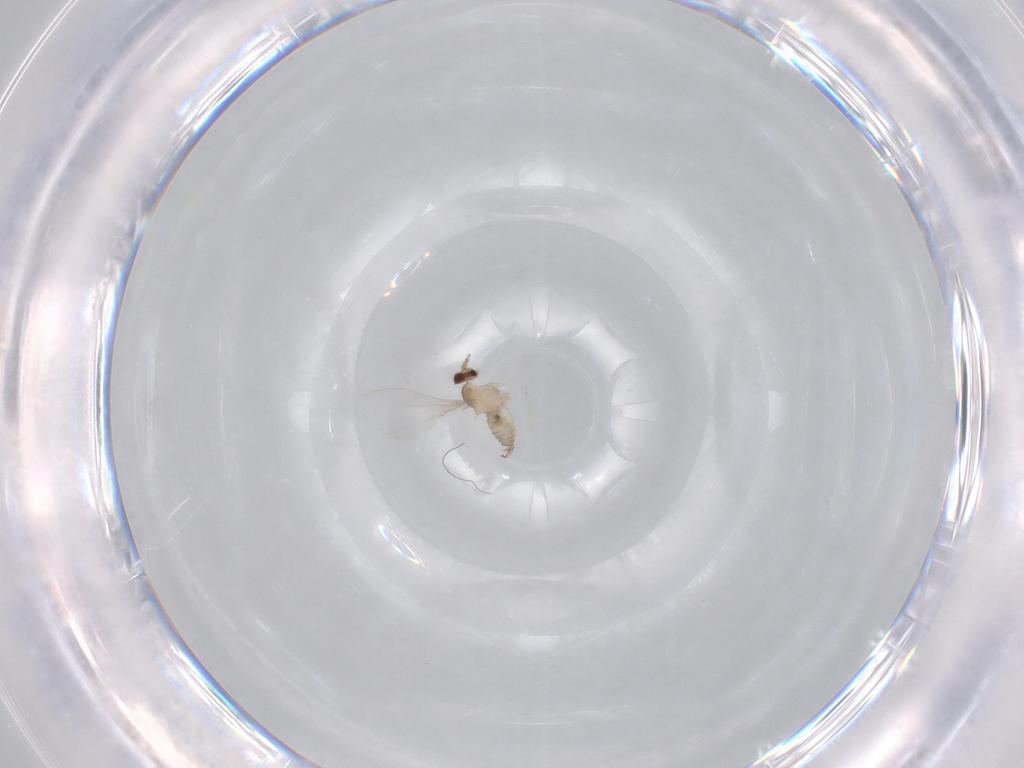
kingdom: Animalia
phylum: Arthropoda
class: Insecta
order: Diptera
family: Cecidomyiidae
